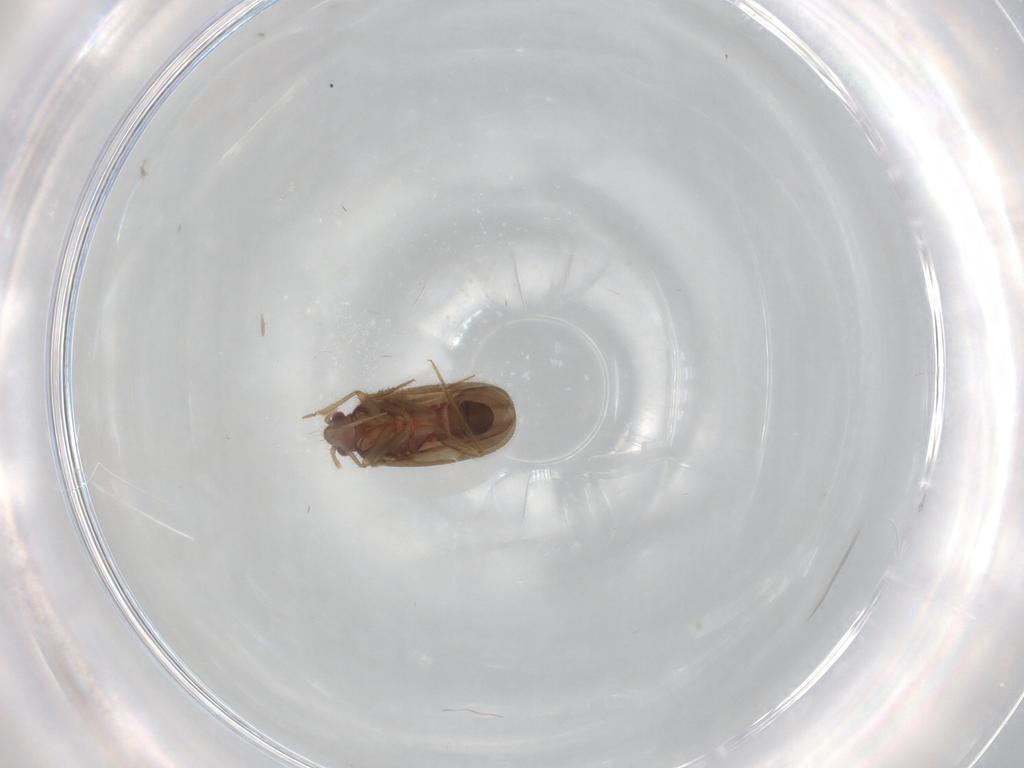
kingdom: Animalia
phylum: Arthropoda
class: Insecta
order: Hemiptera
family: Ceratocombidae
